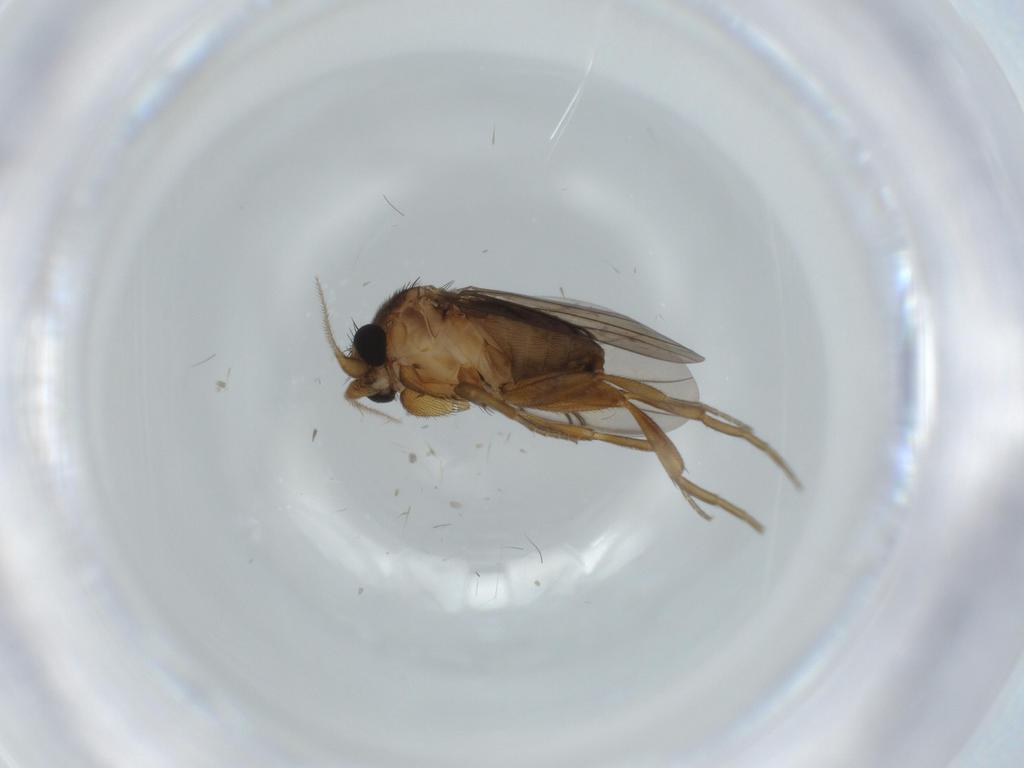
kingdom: Animalia
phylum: Arthropoda
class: Insecta
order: Diptera
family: Phoridae
